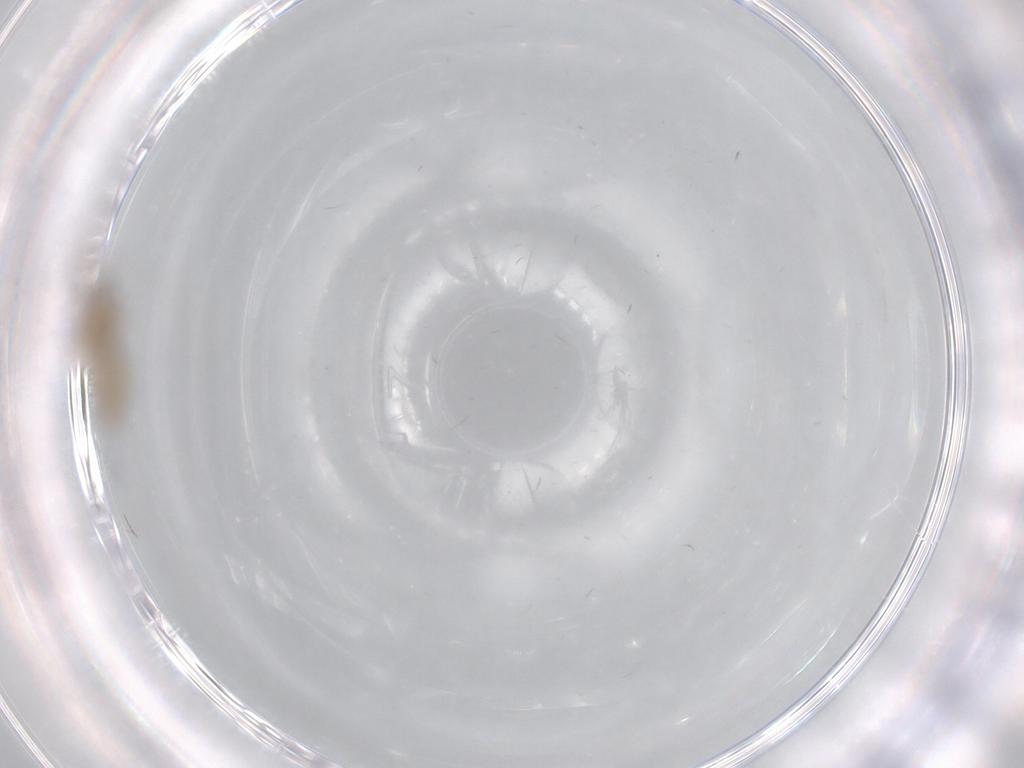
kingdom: Animalia
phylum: Arthropoda
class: Insecta
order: Diptera
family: Cecidomyiidae
